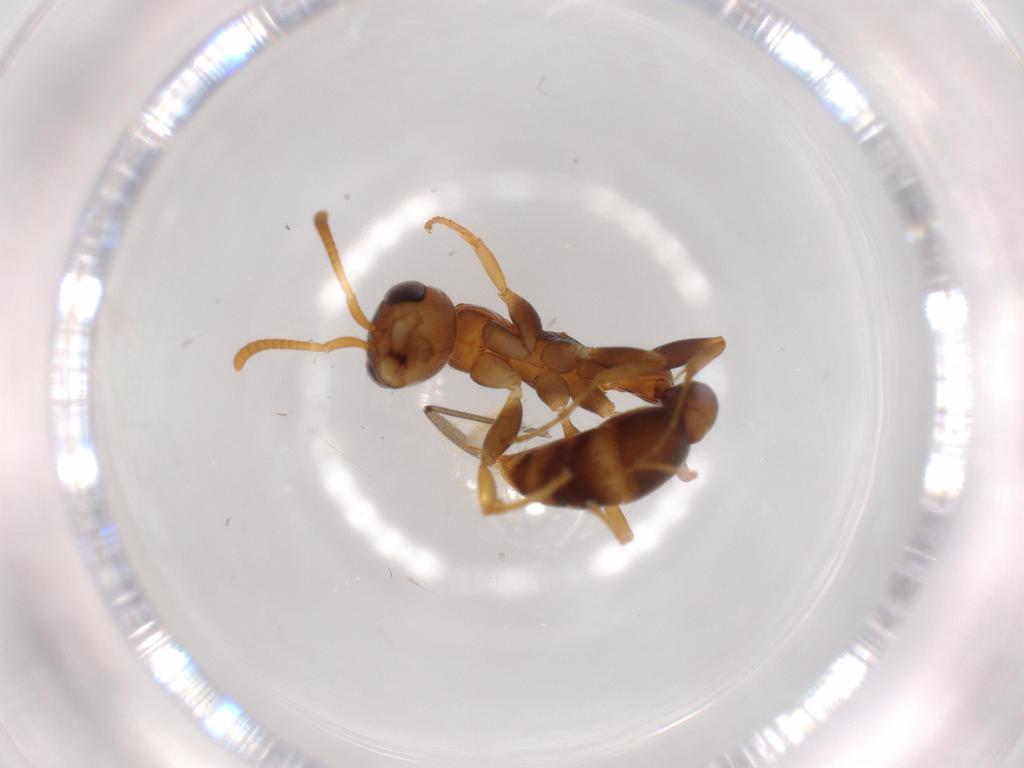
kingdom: Animalia
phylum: Arthropoda
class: Insecta
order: Hymenoptera
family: Formicidae
